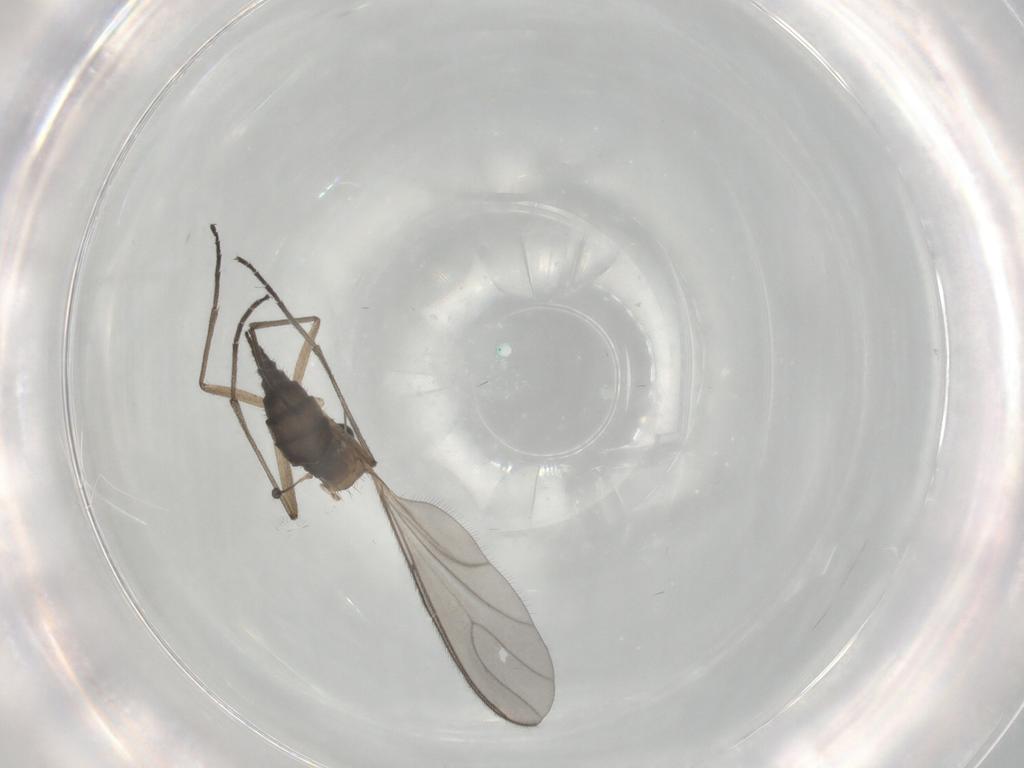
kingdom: Animalia
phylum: Arthropoda
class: Insecta
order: Diptera
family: Sciaridae
